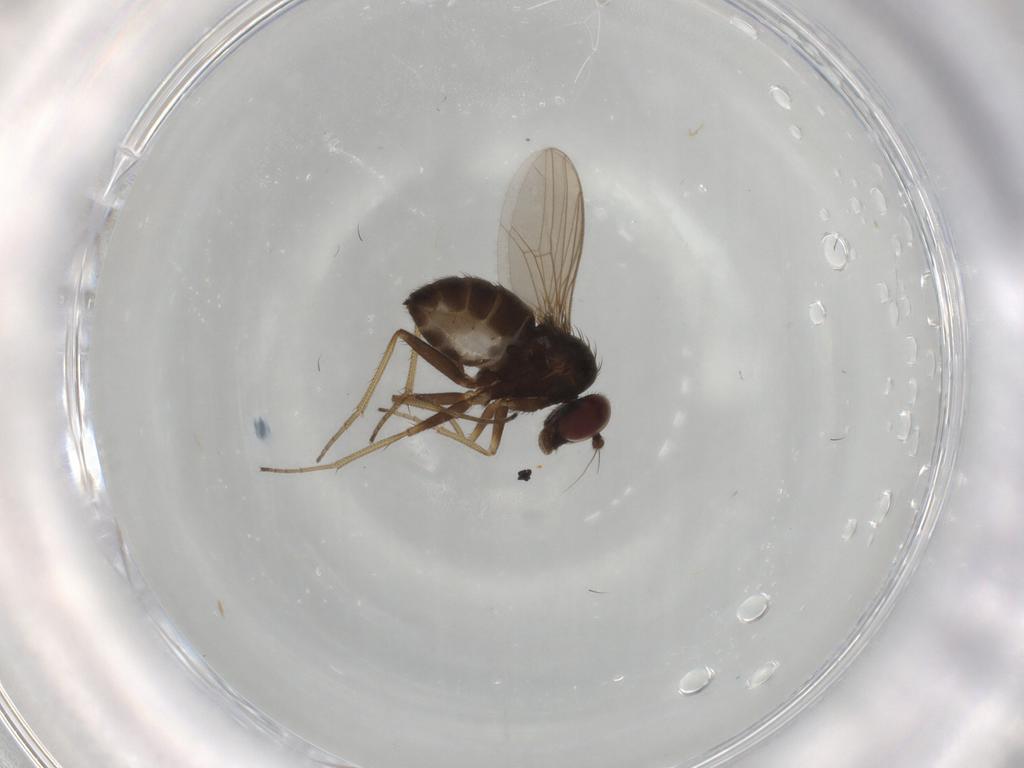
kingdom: Animalia
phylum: Arthropoda
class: Insecta
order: Diptera
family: Dolichopodidae
